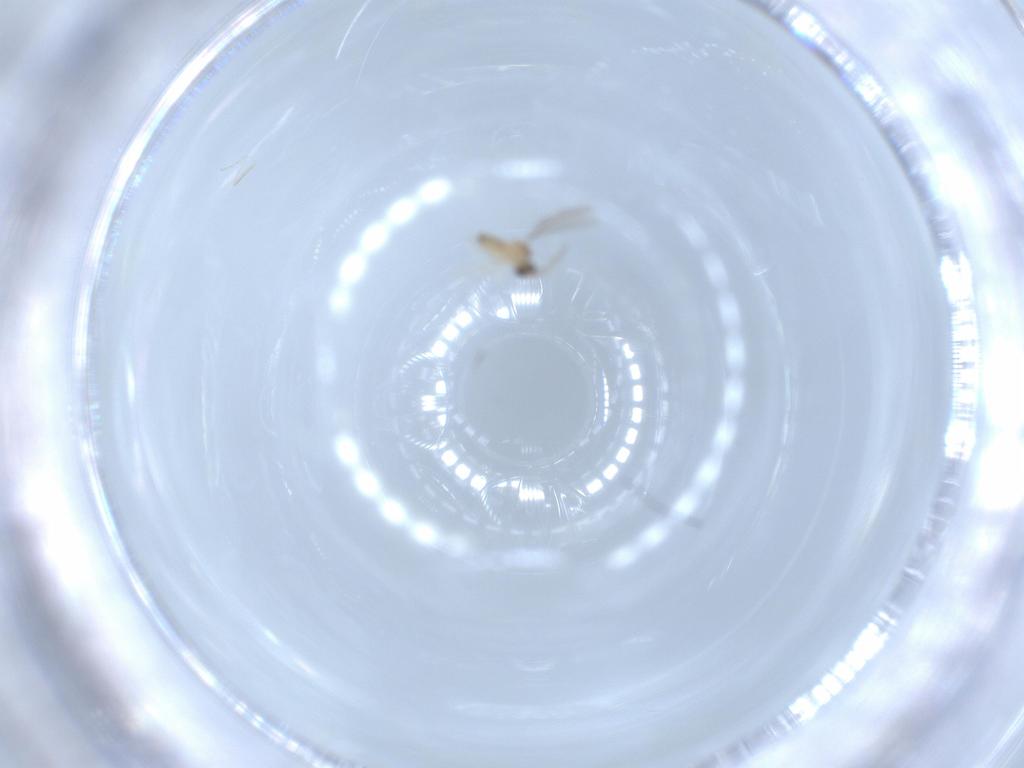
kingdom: Animalia
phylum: Arthropoda
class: Insecta
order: Diptera
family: Cecidomyiidae
